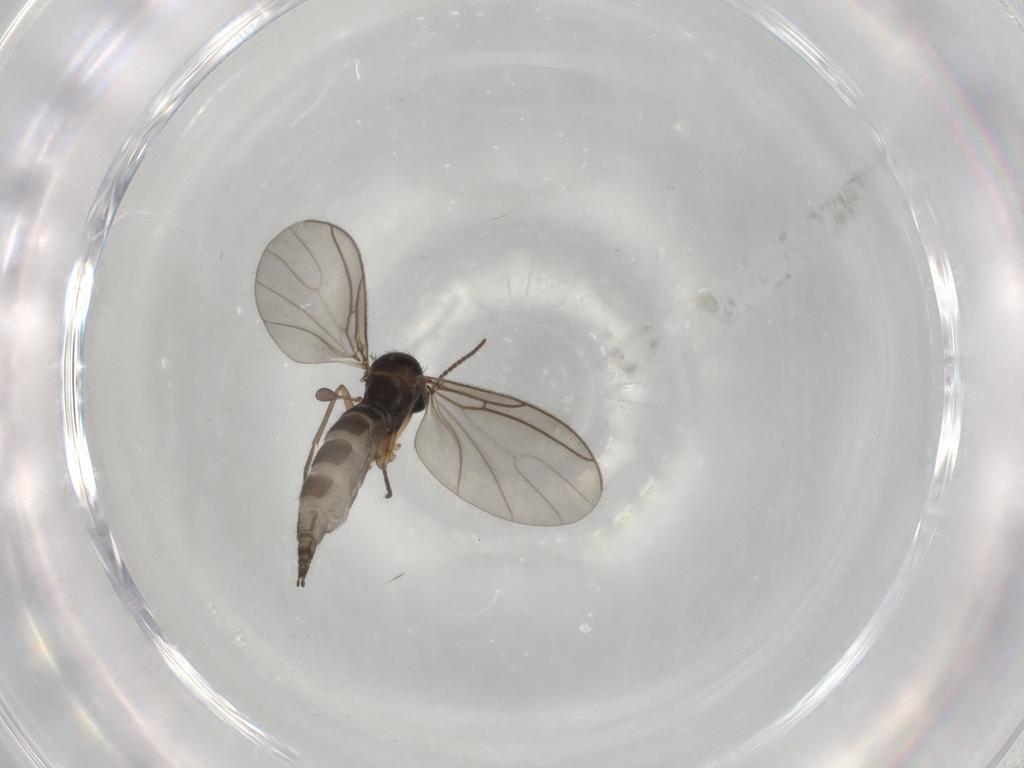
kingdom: Animalia
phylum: Arthropoda
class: Insecta
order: Diptera
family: Sciaridae
